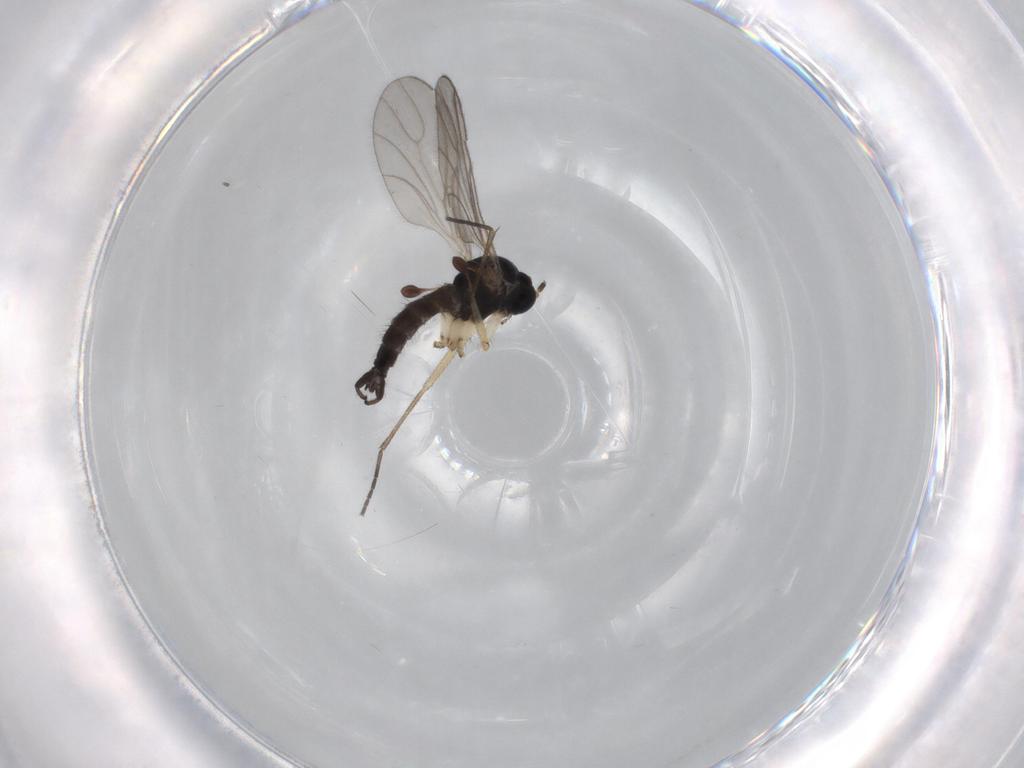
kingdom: Animalia
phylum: Arthropoda
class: Insecta
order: Diptera
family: Sciaridae
